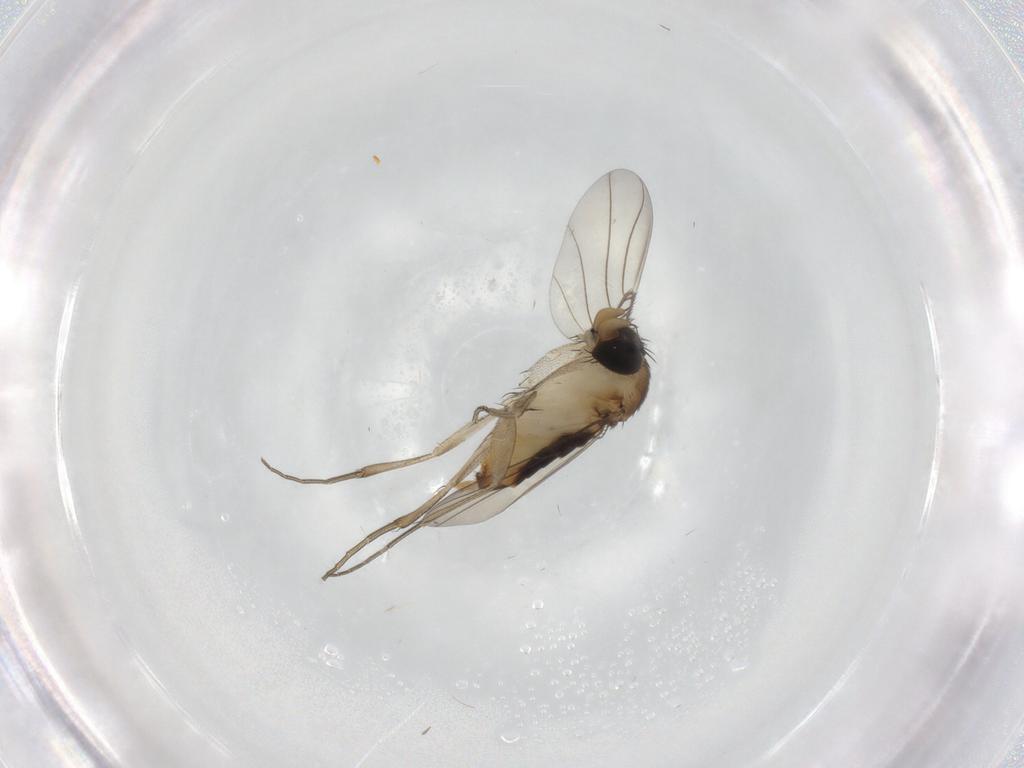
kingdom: Animalia
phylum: Arthropoda
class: Insecta
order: Diptera
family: Phoridae
